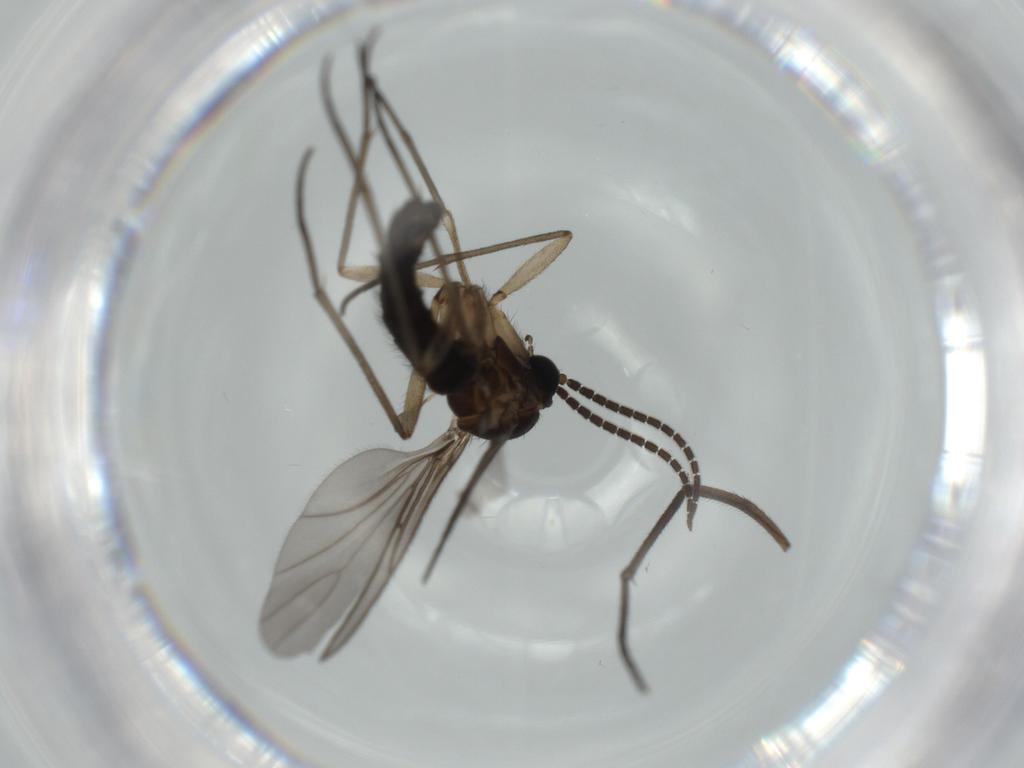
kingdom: Animalia
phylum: Arthropoda
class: Insecta
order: Diptera
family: Sciaridae
